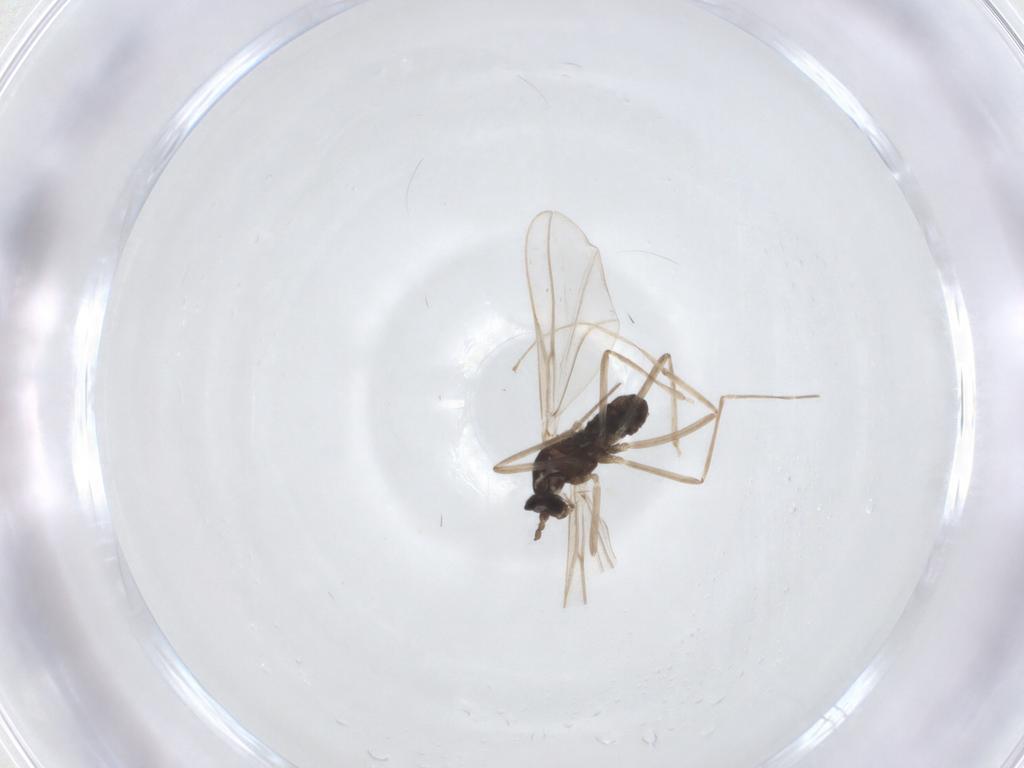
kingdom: Animalia
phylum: Arthropoda
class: Insecta
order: Diptera
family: Cecidomyiidae
